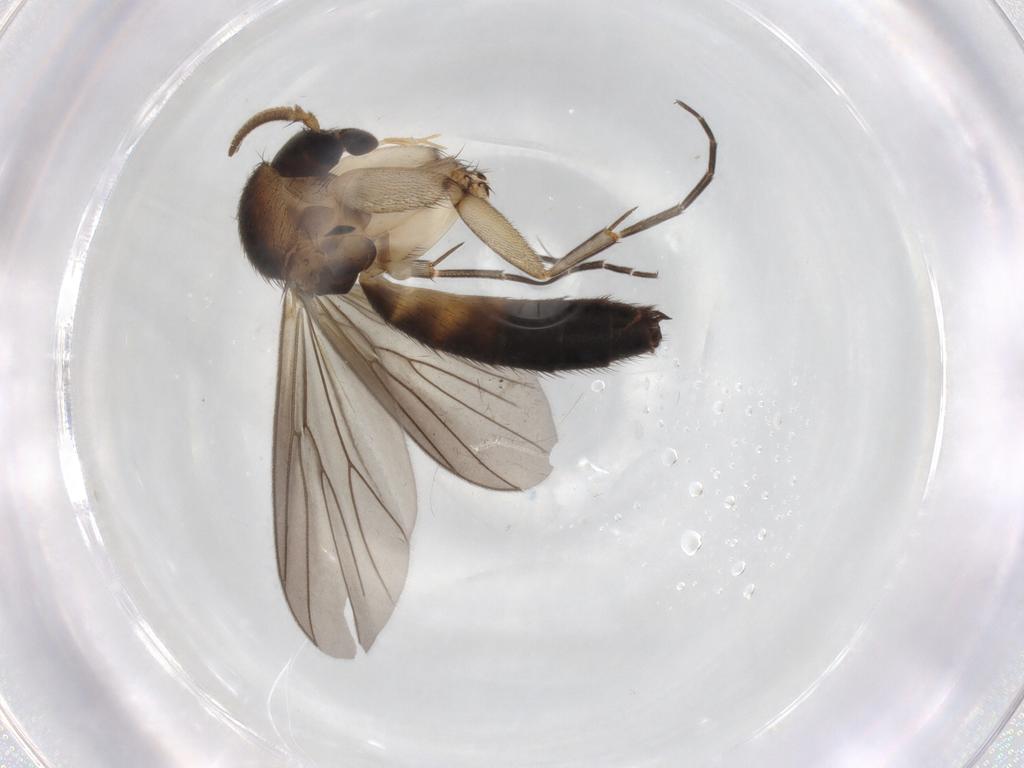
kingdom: Animalia
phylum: Arthropoda
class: Insecta
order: Diptera
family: Mycetophilidae
